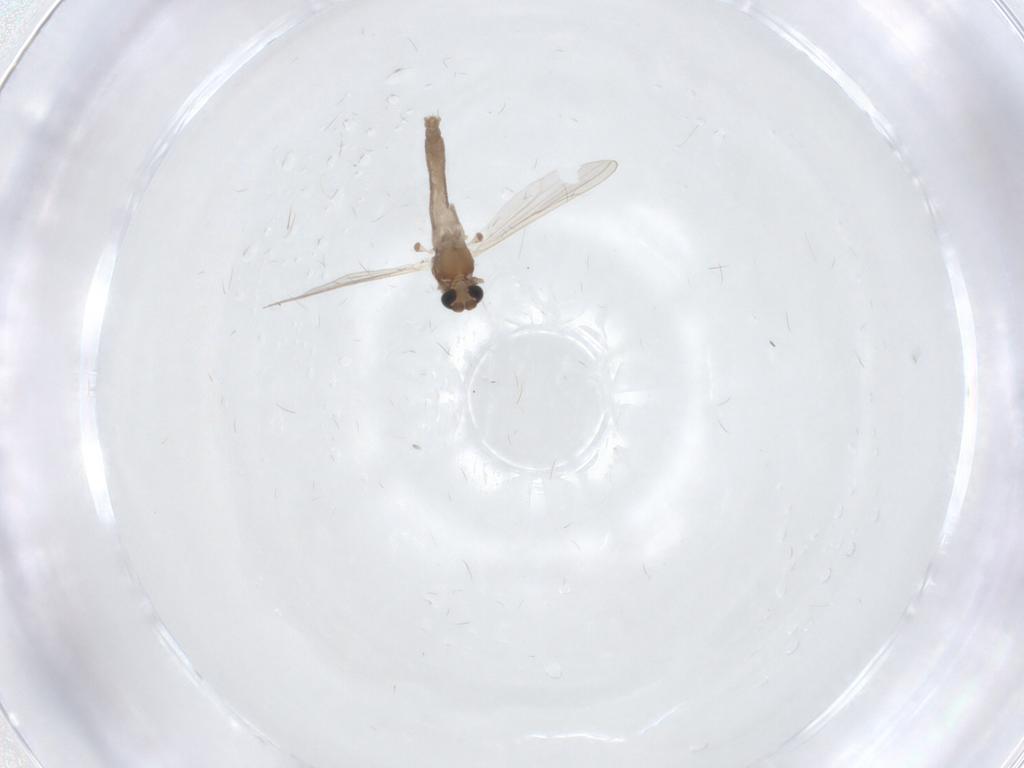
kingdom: Animalia
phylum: Arthropoda
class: Insecta
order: Diptera
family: Chironomidae
